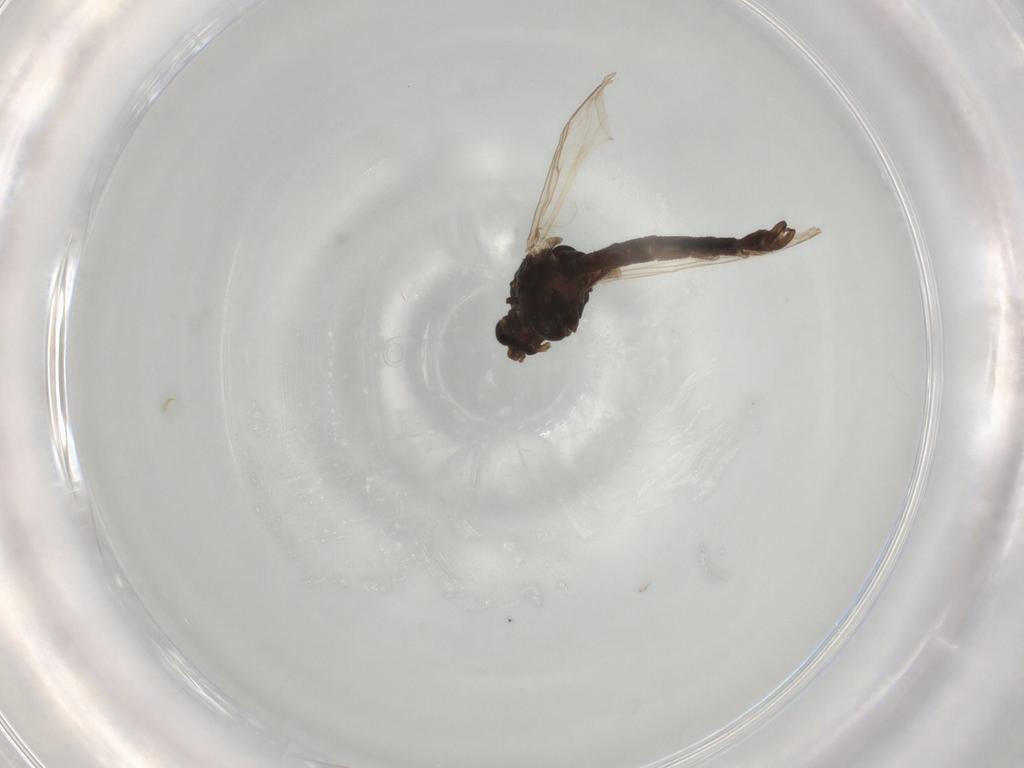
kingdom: Animalia
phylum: Arthropoda
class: Insecta
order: Diptera
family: Chironomidae
